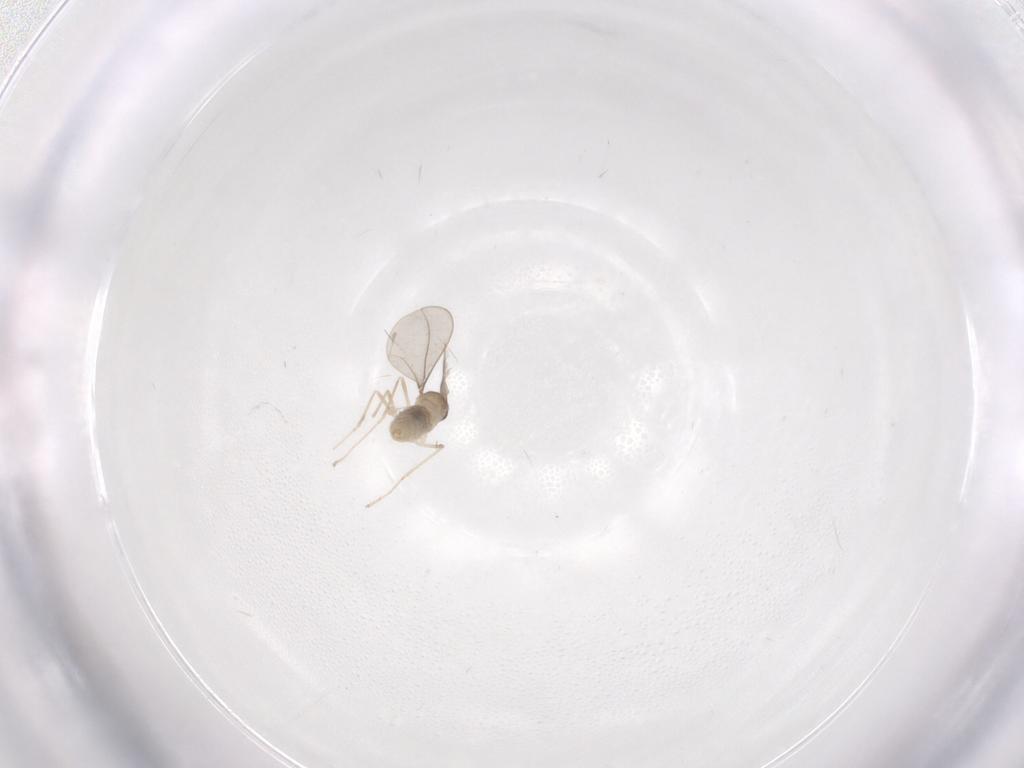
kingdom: Animalia
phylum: Arthropoda
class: Insecta
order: Diptera
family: Cecidomyiidae
